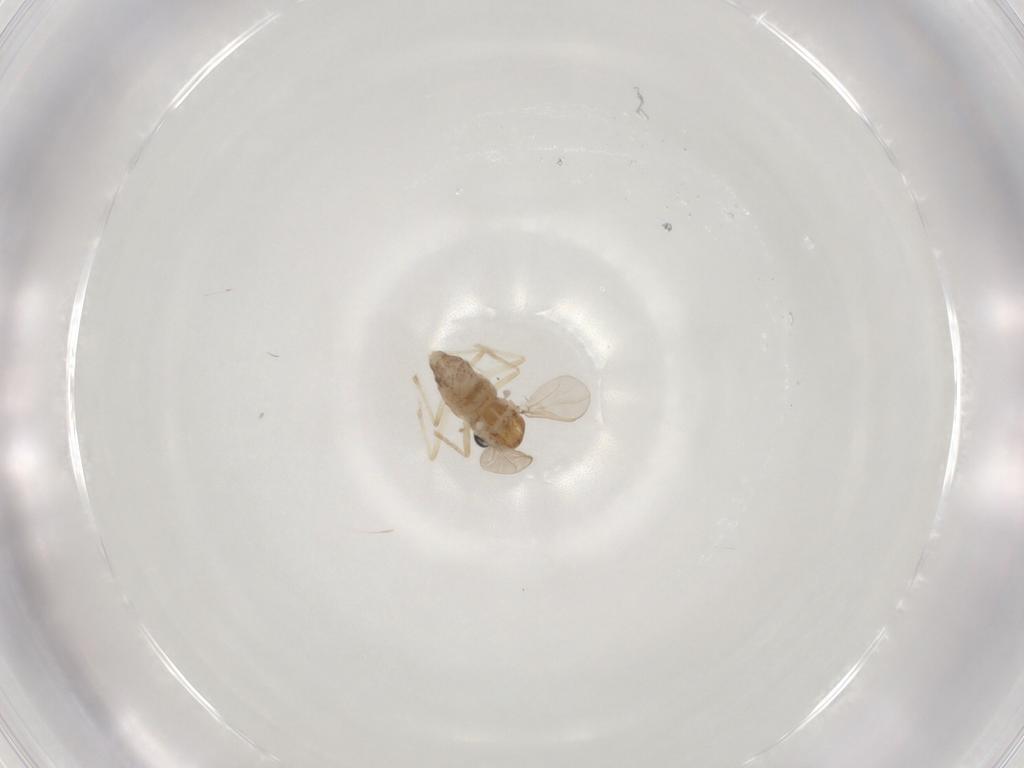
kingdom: Animalia
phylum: Arthropoda
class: Insecta
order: Diptera
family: Chironomidae
